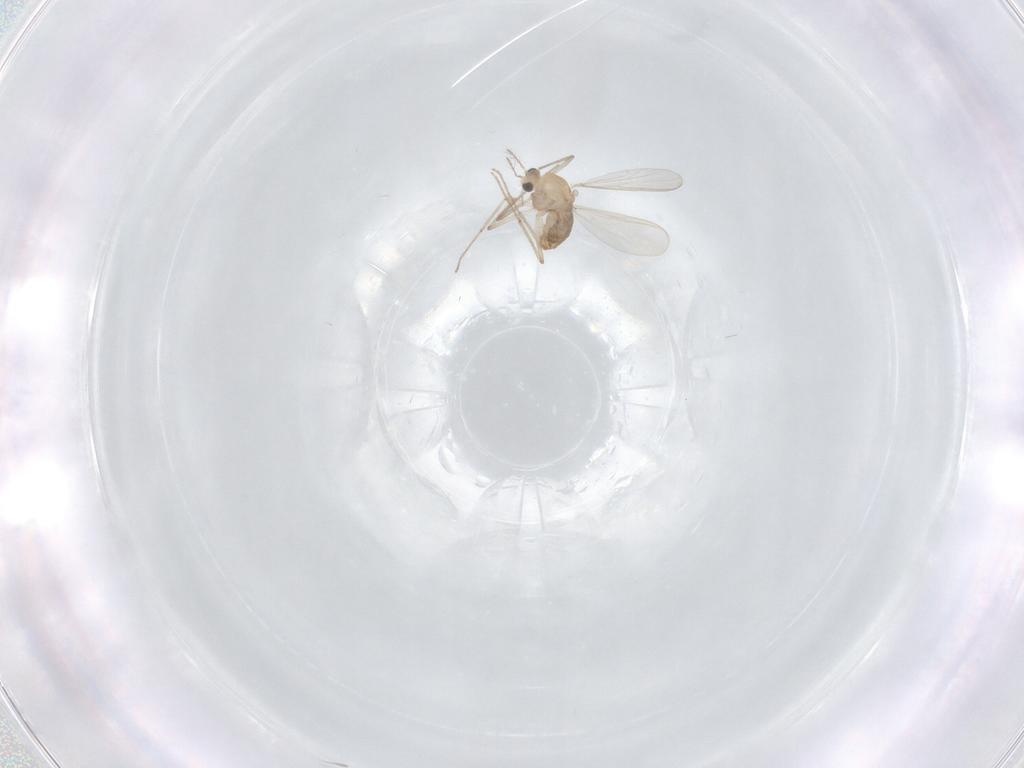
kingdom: Animalia
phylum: Arthropoda
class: Insecta
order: Diptera
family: Chironomidae
